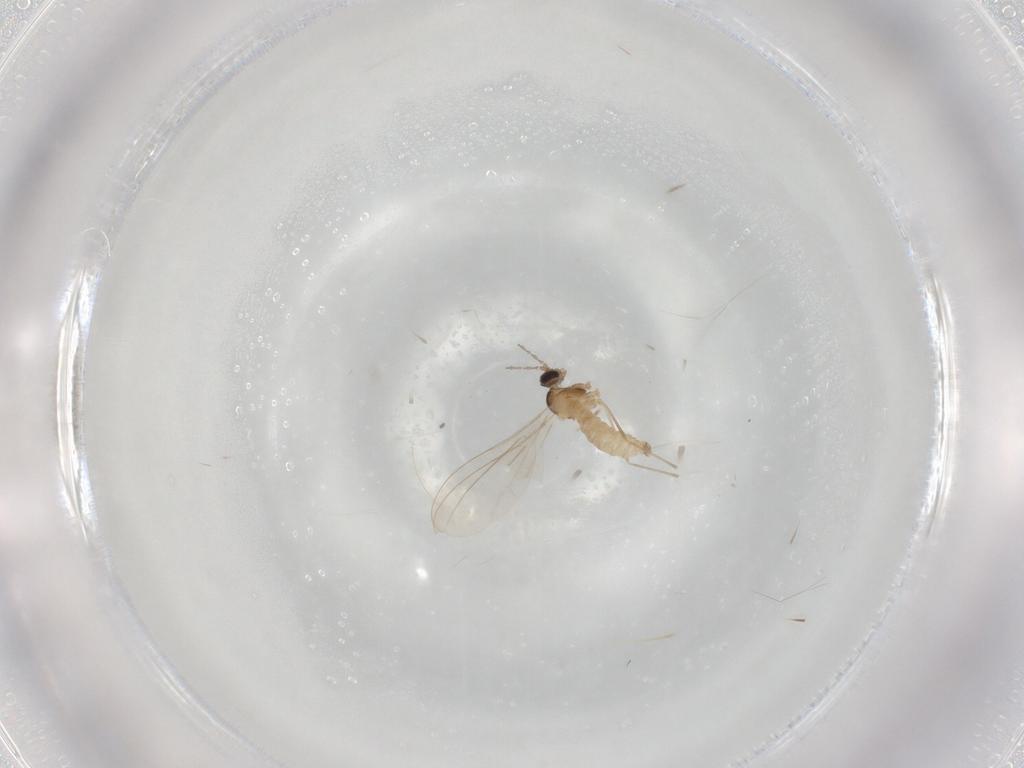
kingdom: Animalia
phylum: Arthropoda
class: Insecta
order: Diptera
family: Cecidomyiidae
